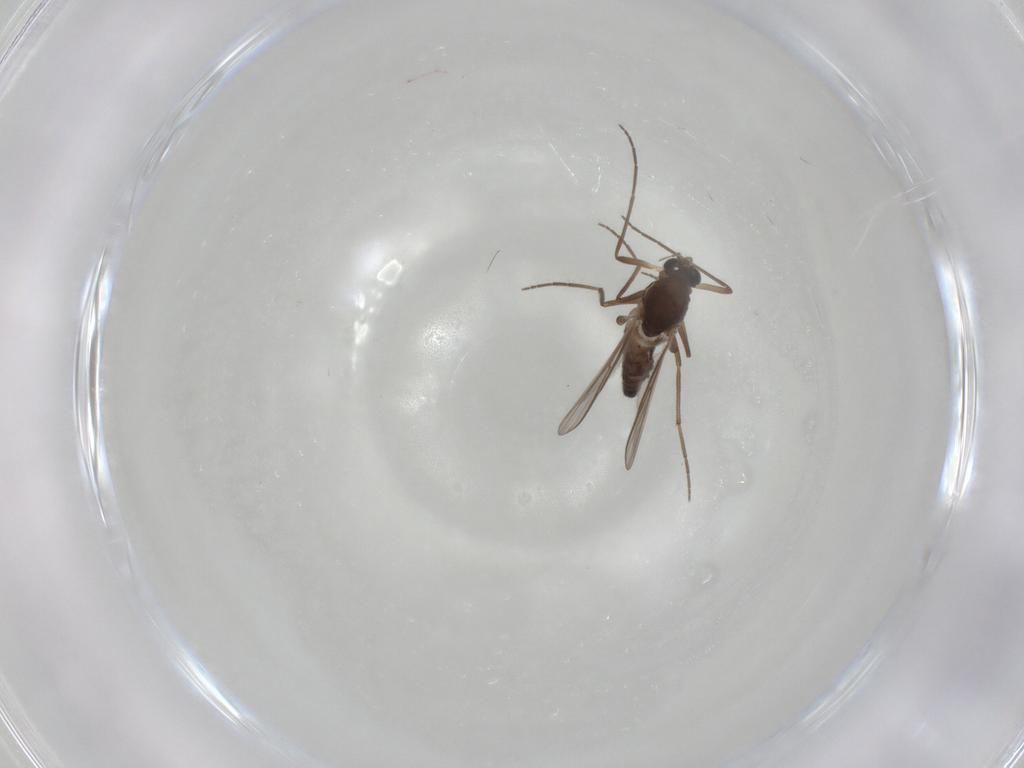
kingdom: Animalia
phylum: Arthropoda
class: Insecta
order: Diptera
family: Chironomidae
